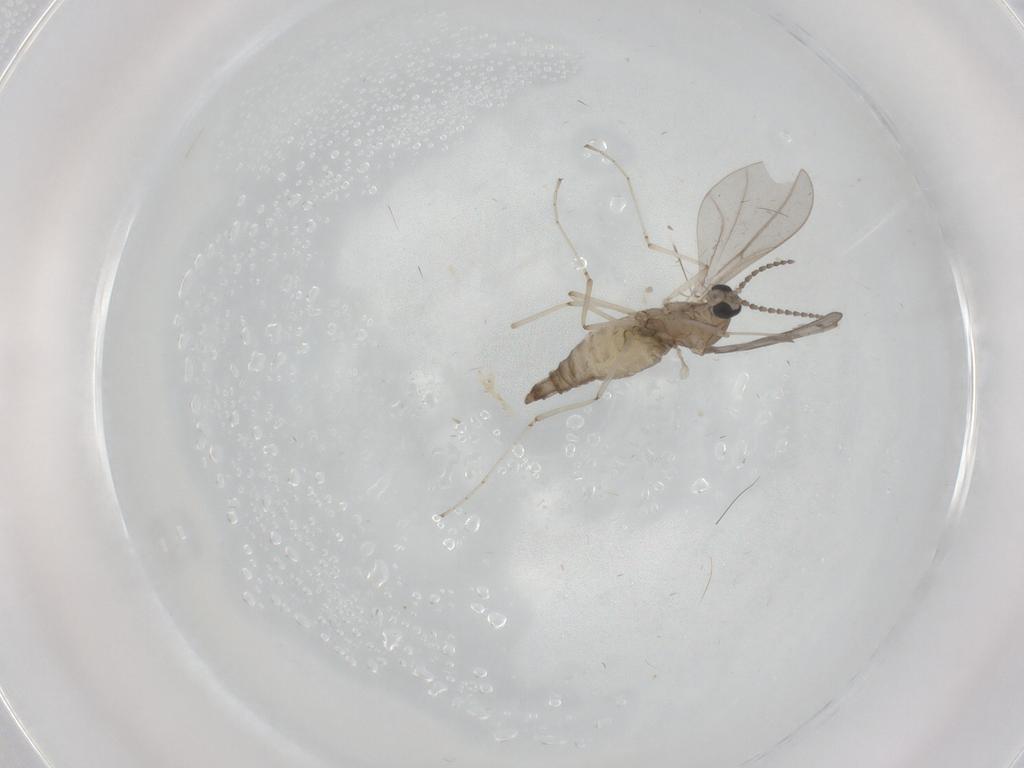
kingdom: Animalia
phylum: Arthropoda
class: Insecta
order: Diptera
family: Cecidomyiidae
